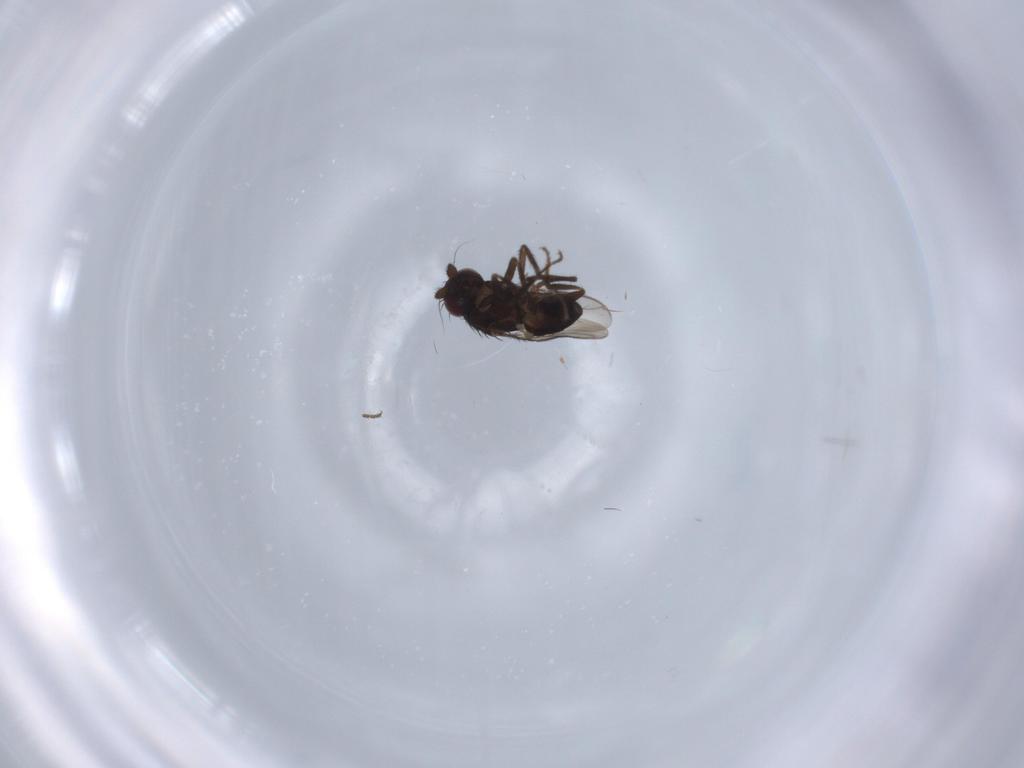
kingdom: Animalia
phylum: Arthropoda
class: Insecta
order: Diptera
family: Sphaeroceridae
